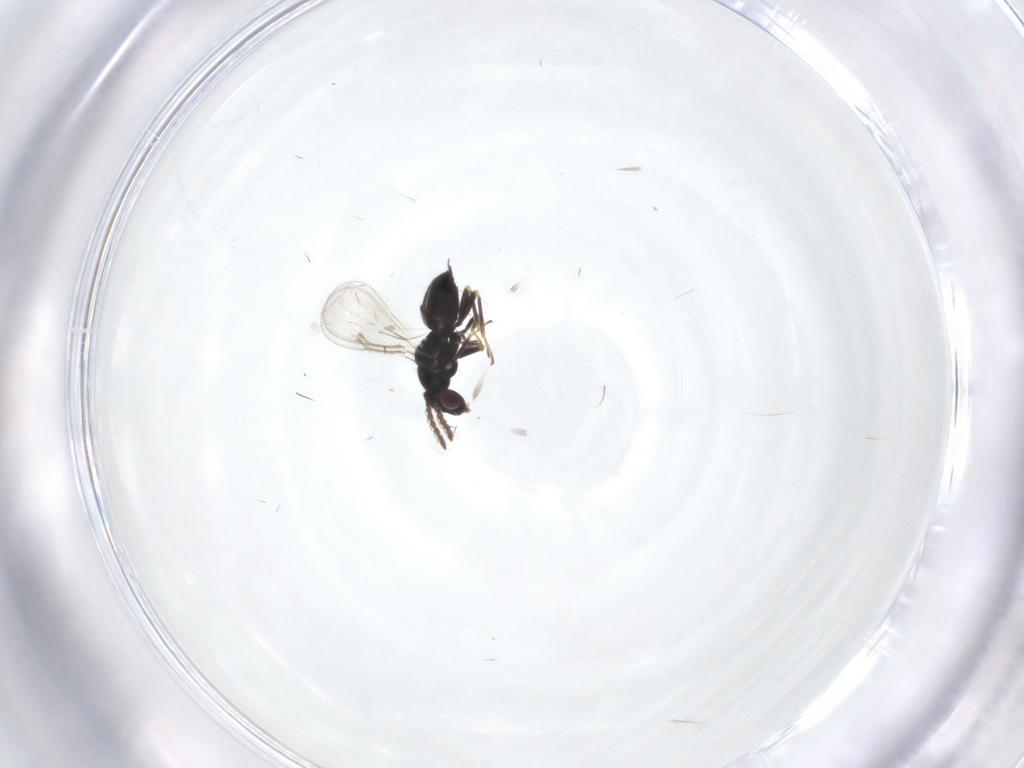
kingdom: Animalia
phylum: Arthropoda
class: Insecta
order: Hymenoptera
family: Eulophidae
